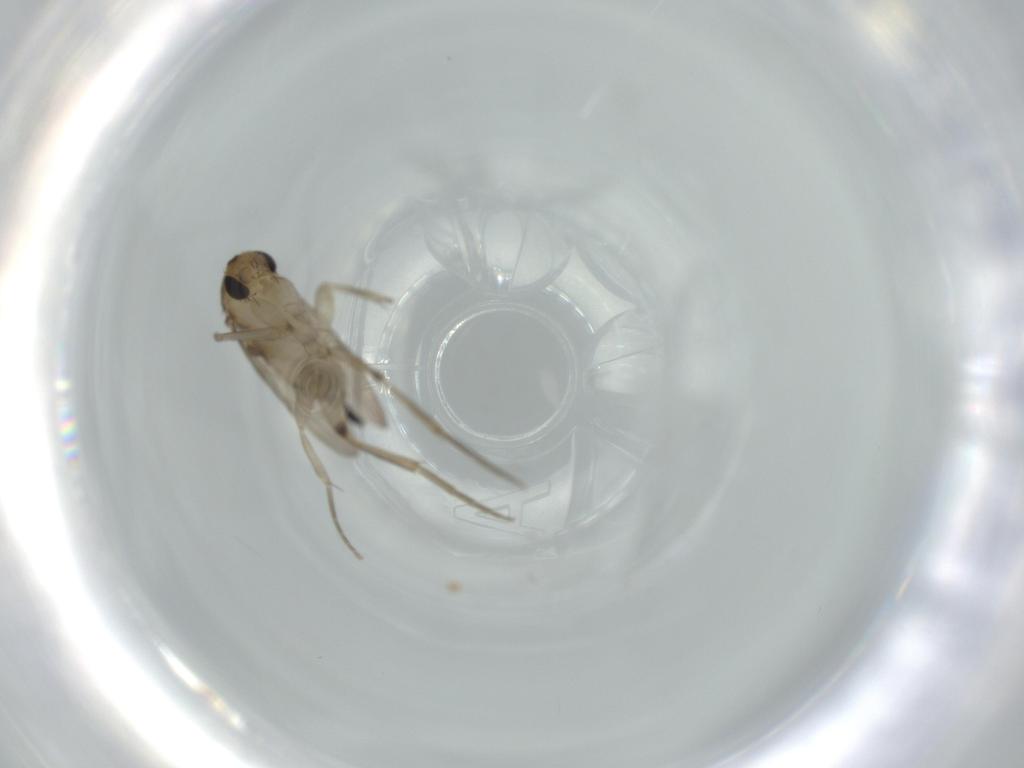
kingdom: Animalia
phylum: Arthropoda
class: Insecta
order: Diptera
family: Phoridae
